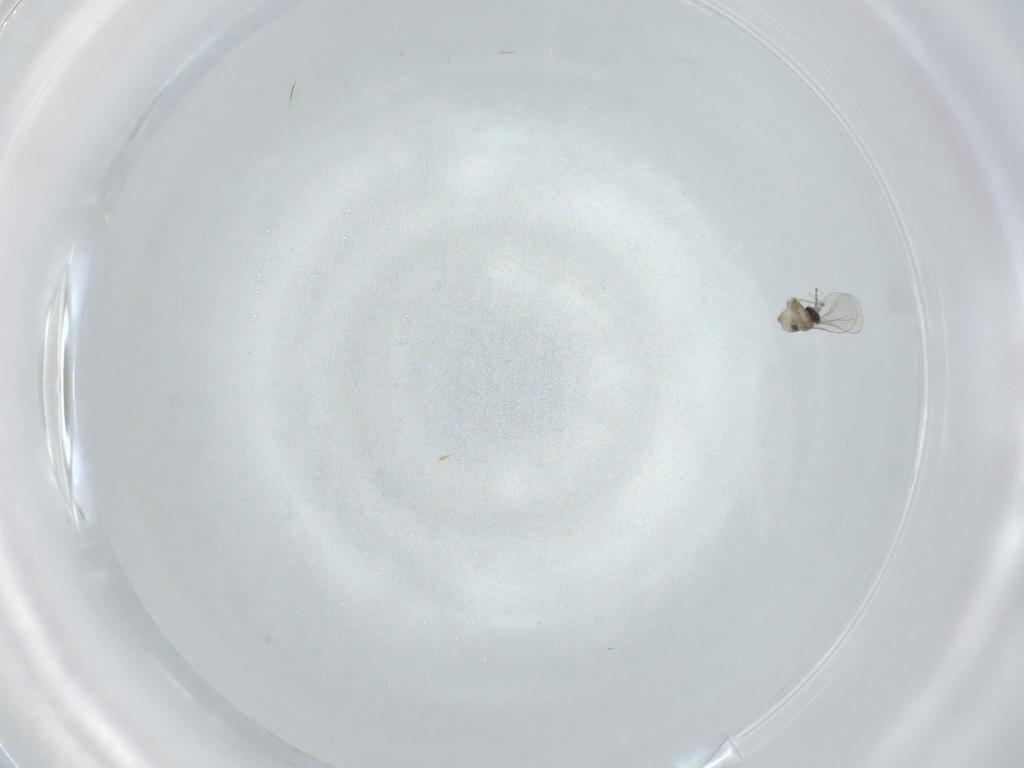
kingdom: Animalia
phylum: Arthropoda
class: Insecta
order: Diptera
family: Cecidomyiidae
